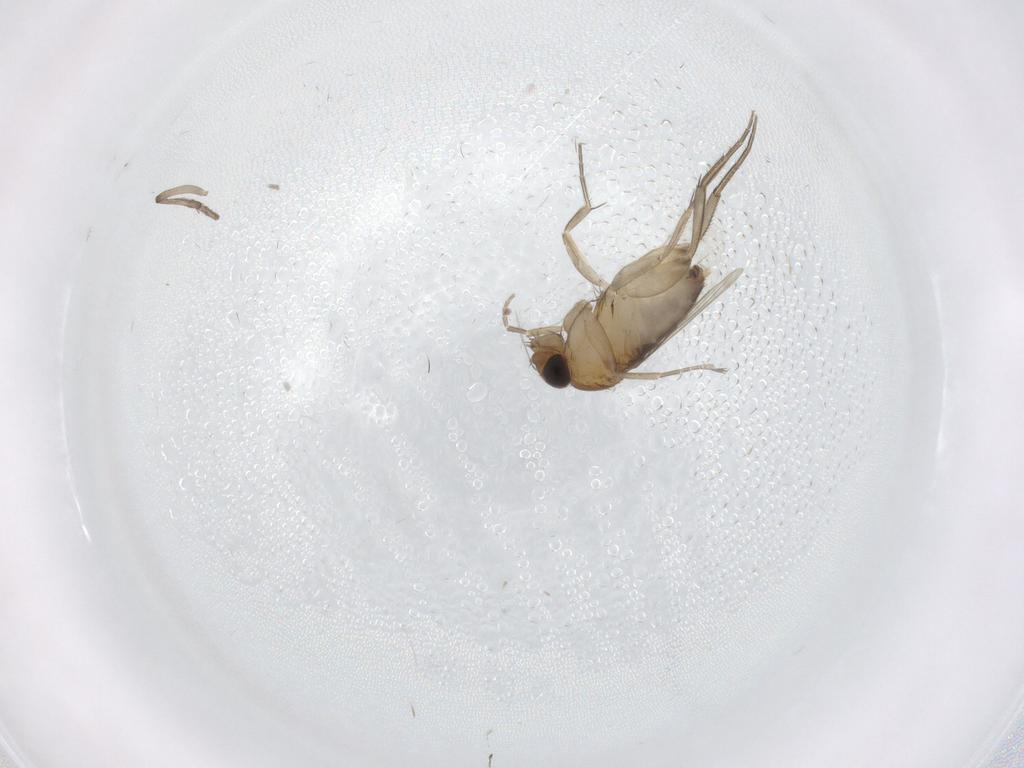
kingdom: Animalia
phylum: Arthropoda
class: Insecta
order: Diptera
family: Phoridae
